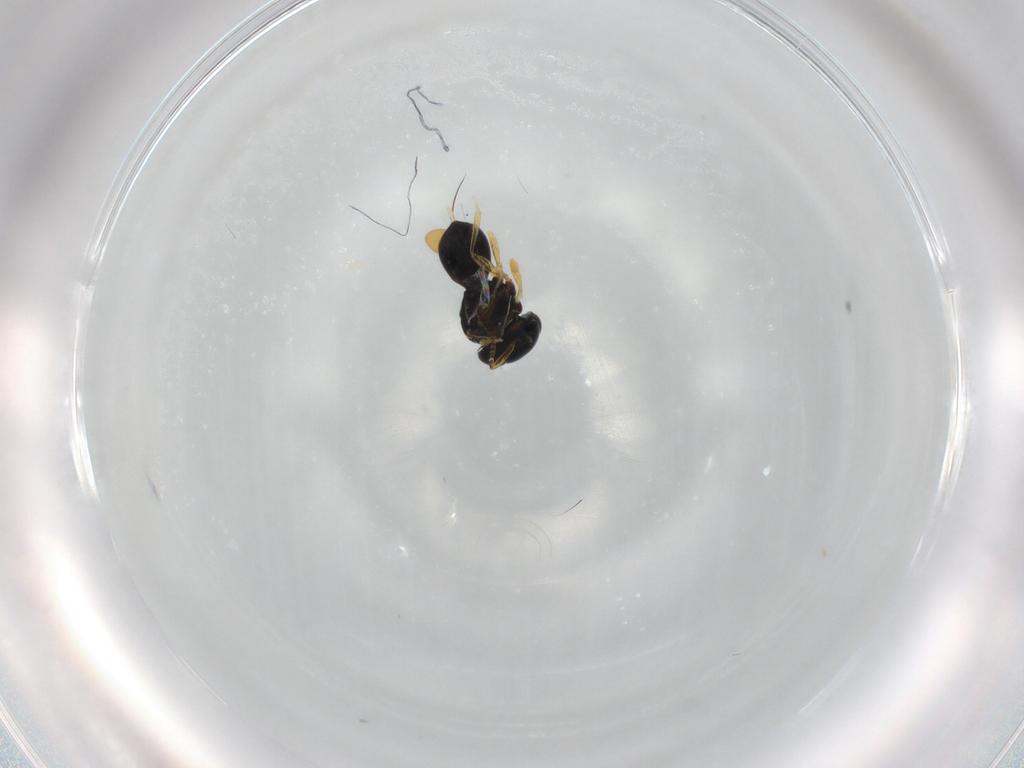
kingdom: Animalia
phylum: Arthropoda
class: Insecta
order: Hymenoptera
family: Scelionidae
